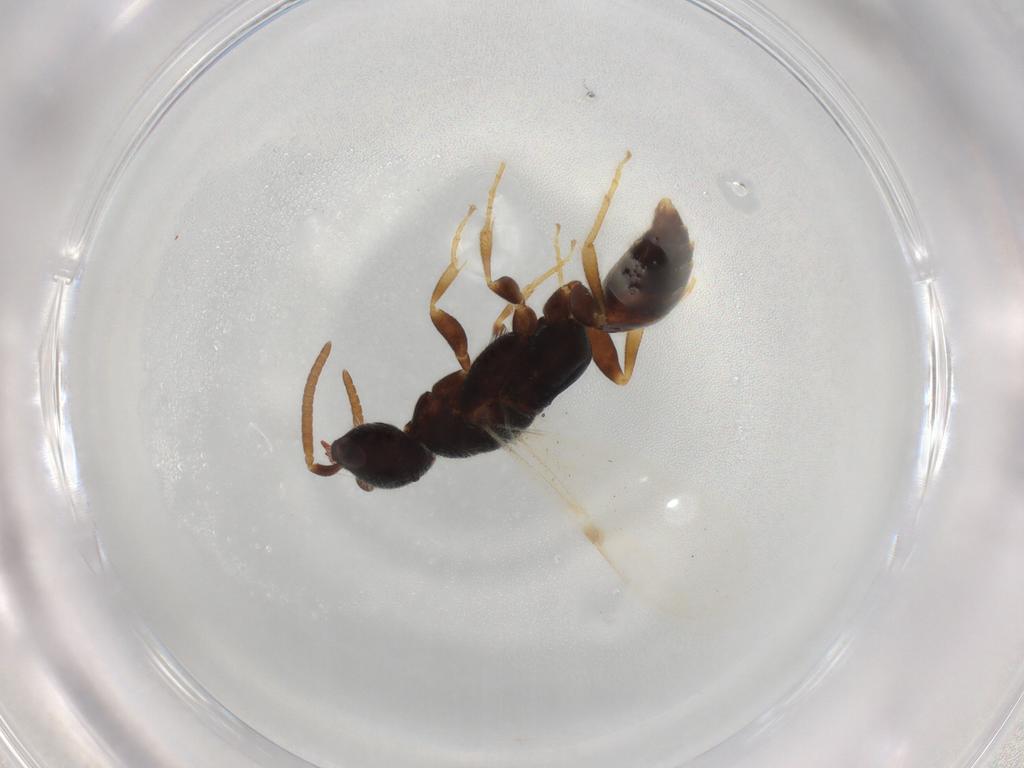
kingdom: Animalia
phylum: Arthropoda
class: Insecta
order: Hymenoptera
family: Bethylidae
